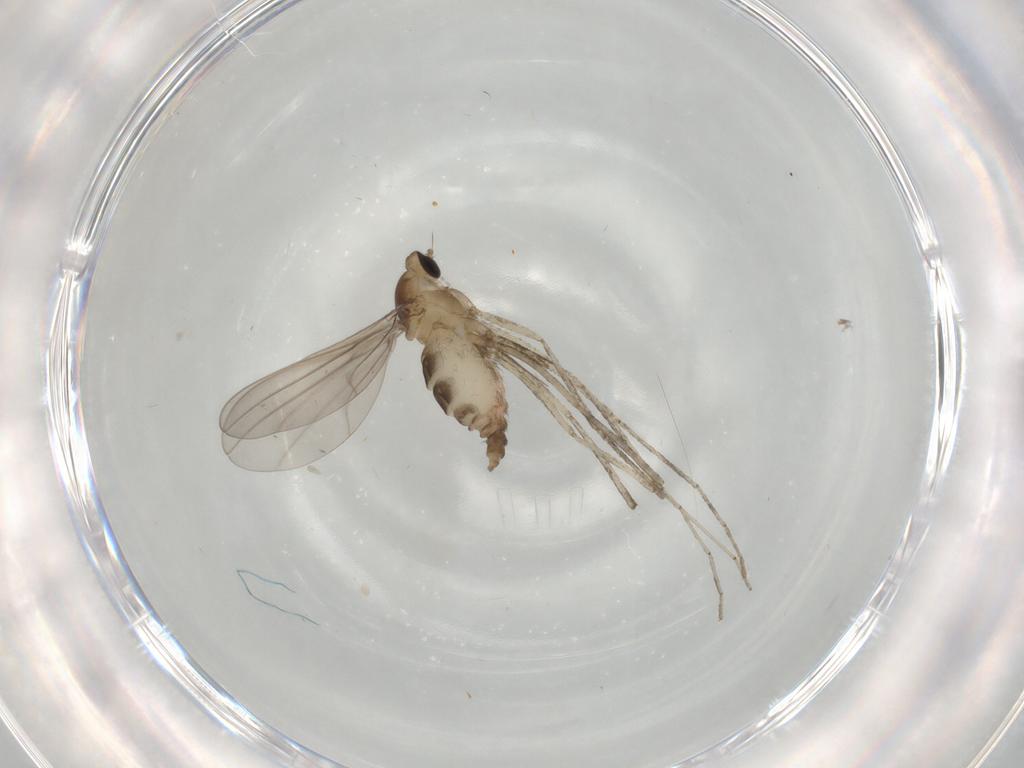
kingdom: Animalia
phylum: Arthropoda
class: Insecta
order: Diptera
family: Cecidomyiidae
